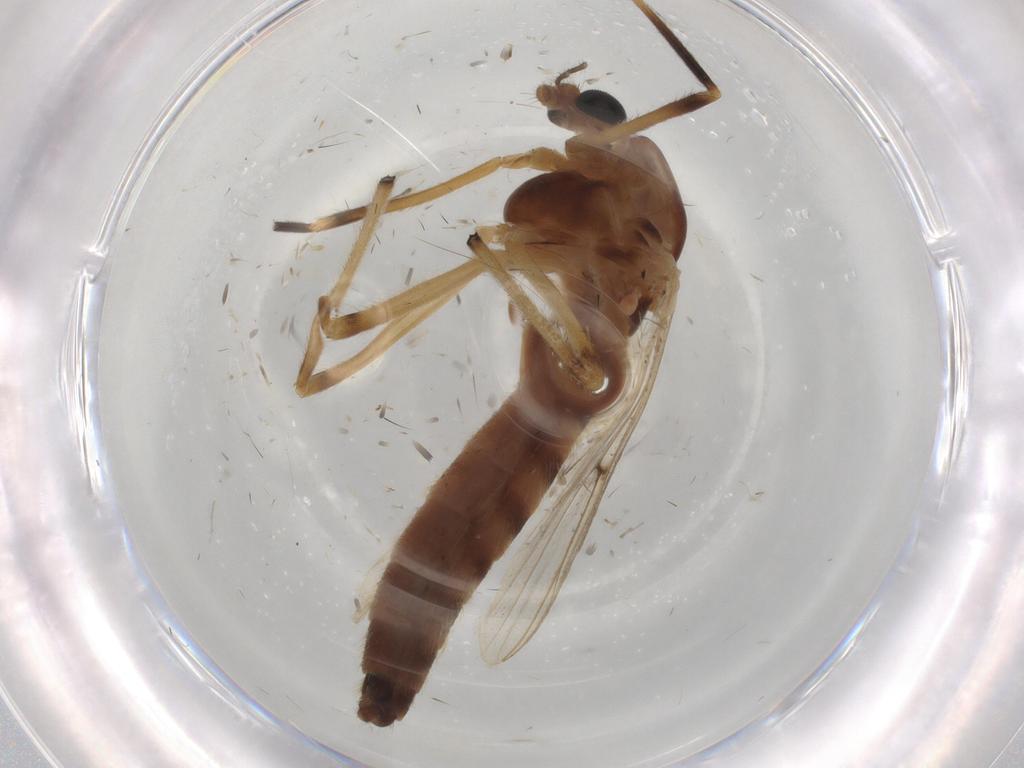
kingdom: Animalia
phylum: Arthropoda
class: Insecta
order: Diptera
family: Chironomidae
